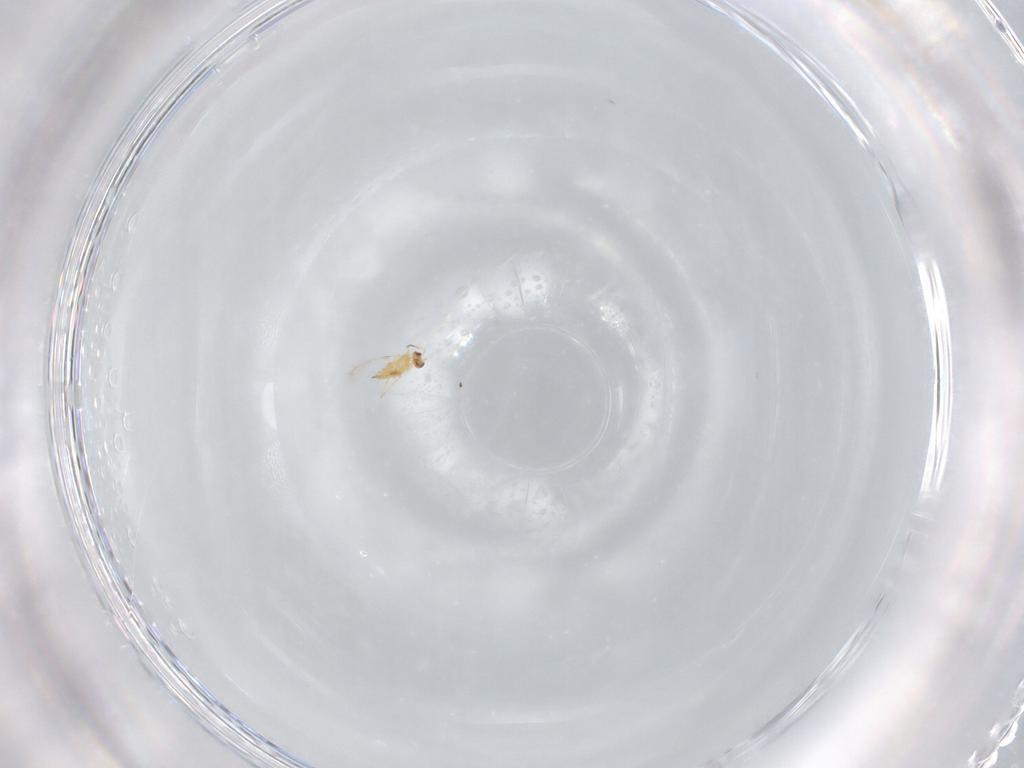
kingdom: Animalia
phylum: Arthropoda
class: Insecta
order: Hymenoptera
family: Mymaridae
